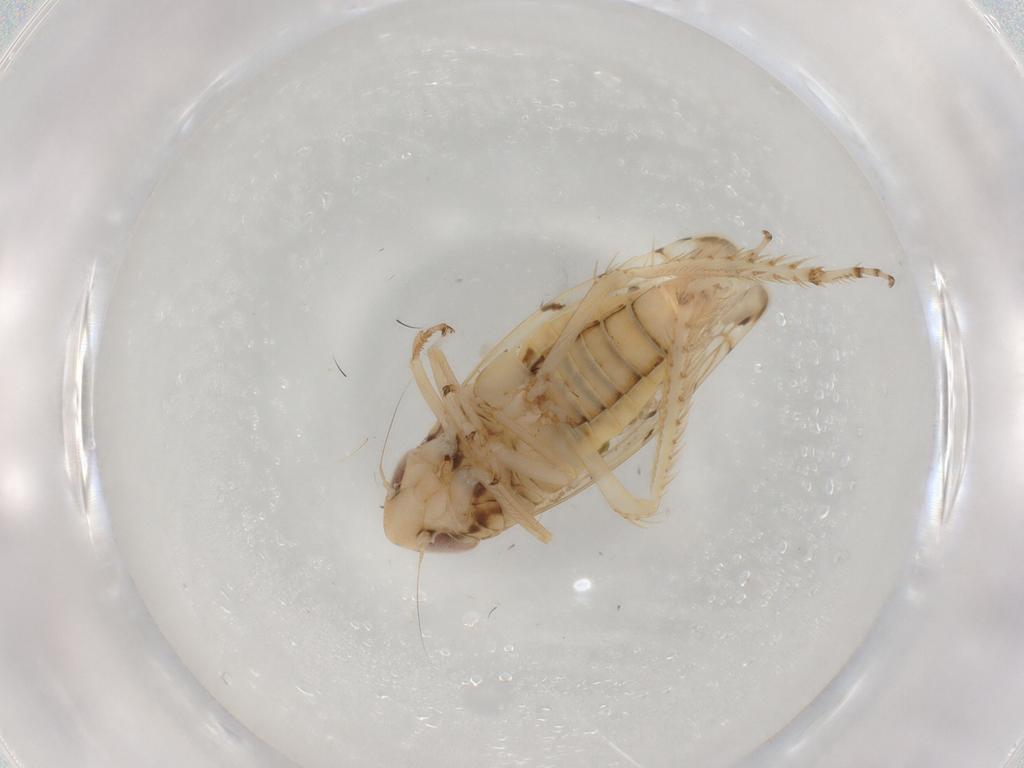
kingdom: Animalia
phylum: Arthropoda
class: Insecta
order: Hemiptera
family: Cicadellidae
